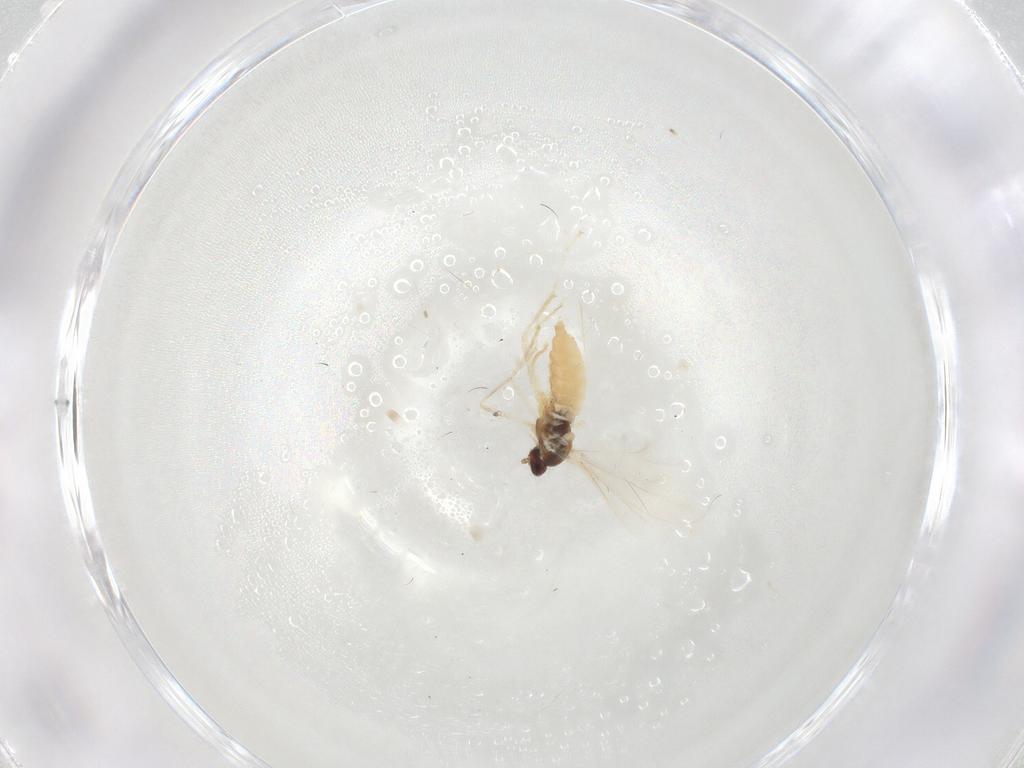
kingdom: Animalia
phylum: Arthropoda
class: Insecta
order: Diptera
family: Cecidomyiidae
